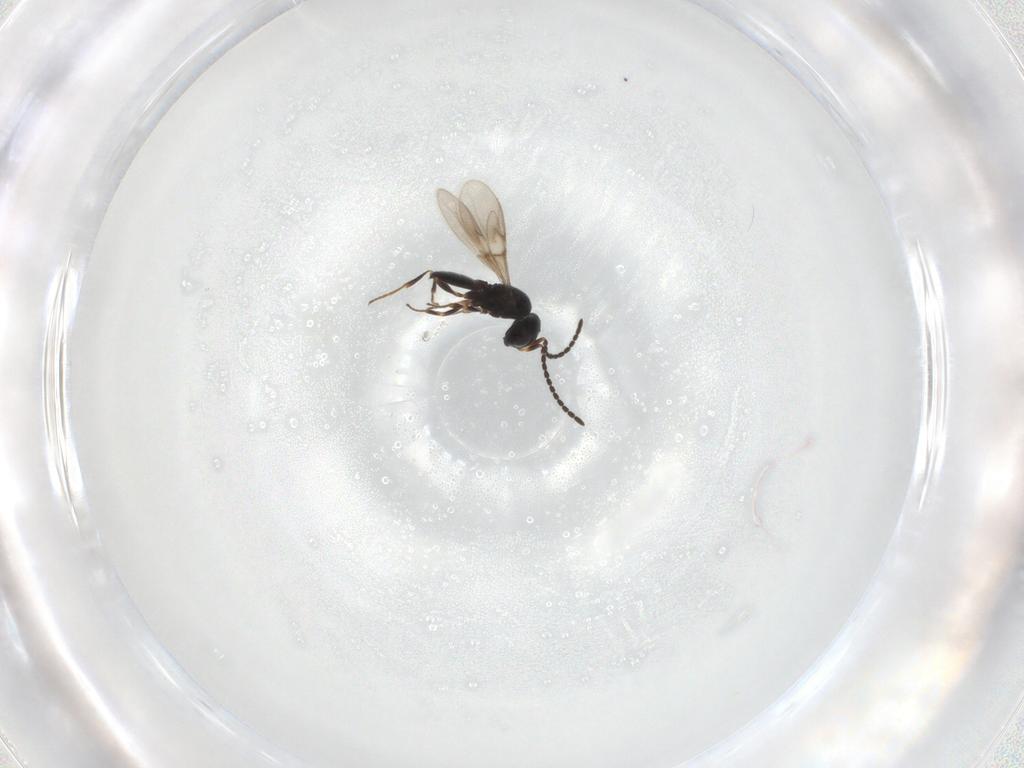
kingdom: Animalia
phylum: Arthropoda
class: Insecta
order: Hymenoptera
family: Scelionidae
